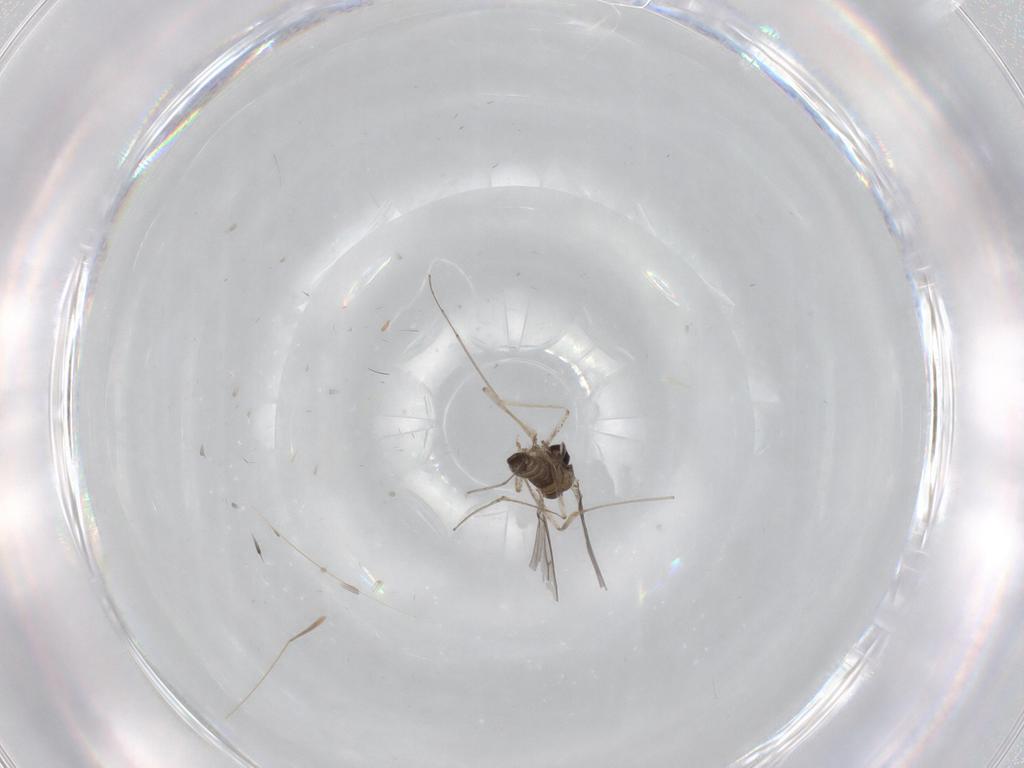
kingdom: Animalia
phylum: Arthropoda
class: Insecta
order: Diptera
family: Cecidomyiidae
